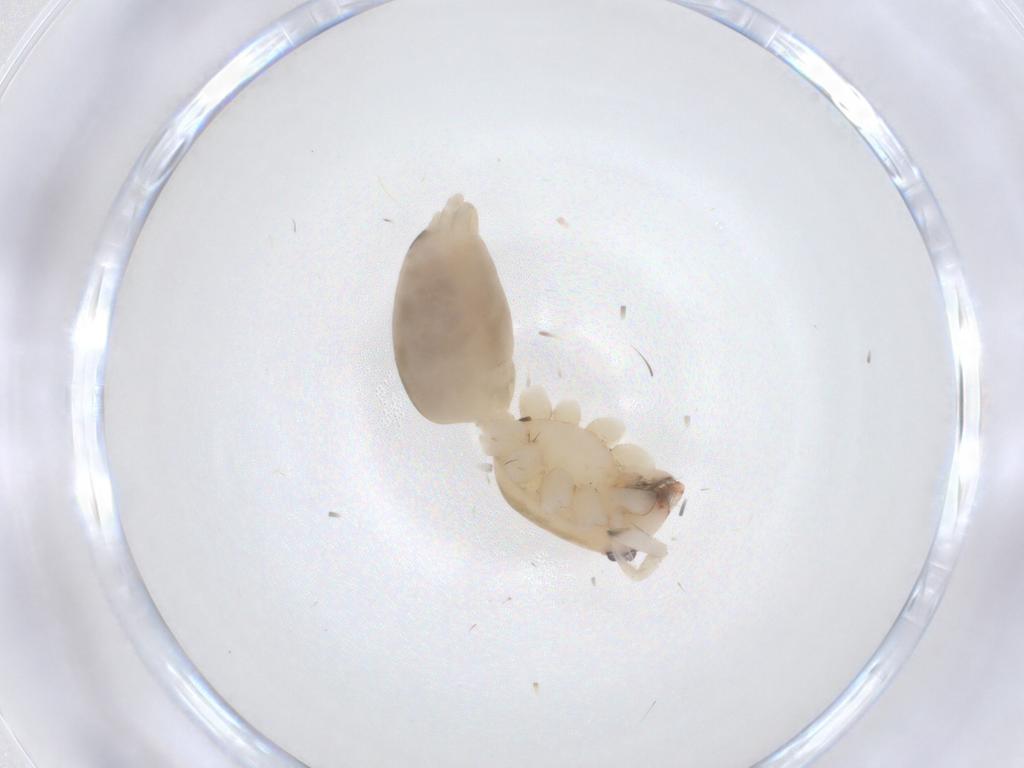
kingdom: Animalia
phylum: Arthropoda
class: Arachnida
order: Araneae
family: Anyphaenidae
